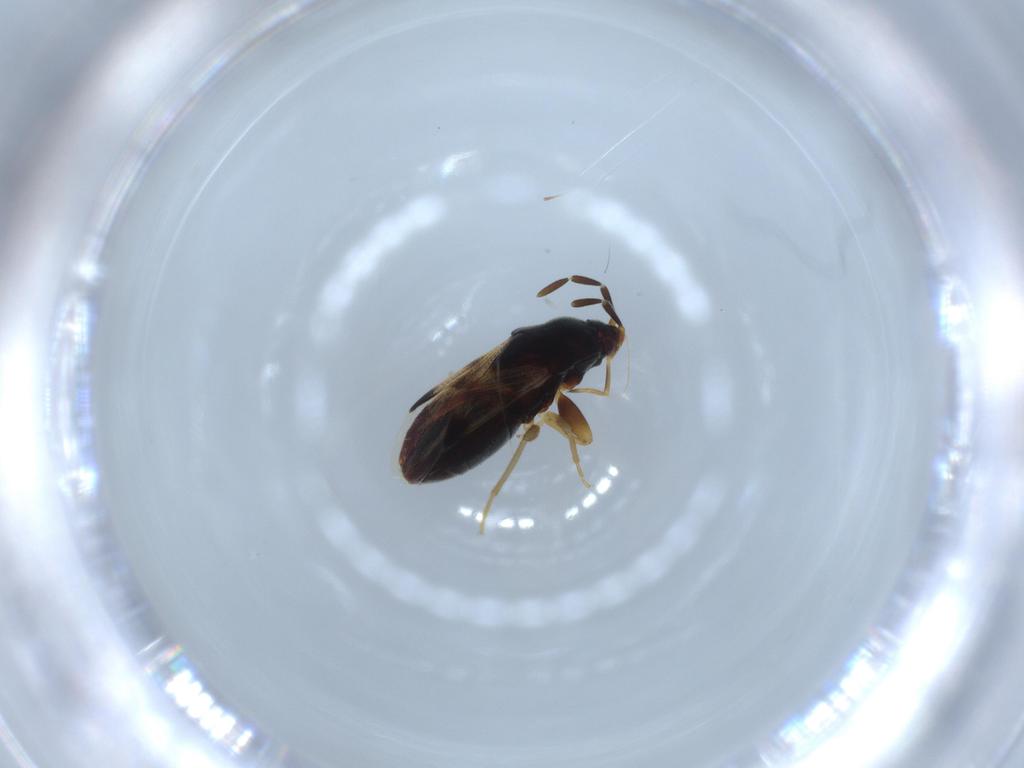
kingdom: Animalia
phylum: Arthropoda
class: Insecta
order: Hemiptera
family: Rhyparochromidae
